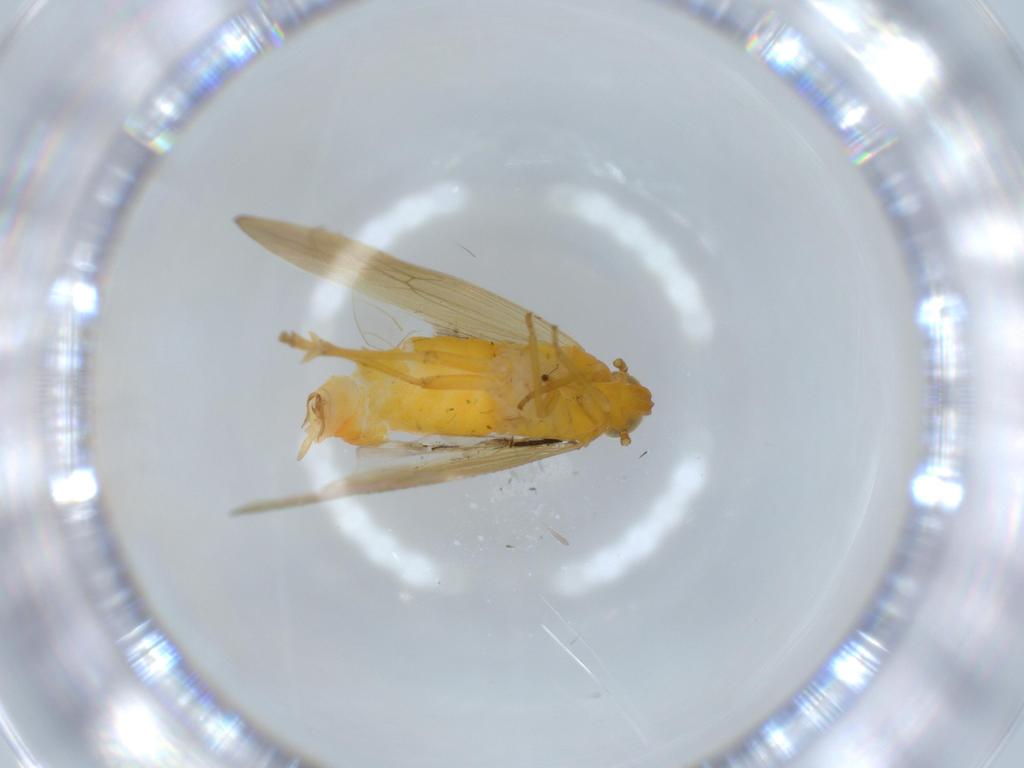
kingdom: Animalia
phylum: Arthropoda
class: Insecta
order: Hemiptera
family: Delphacidae
